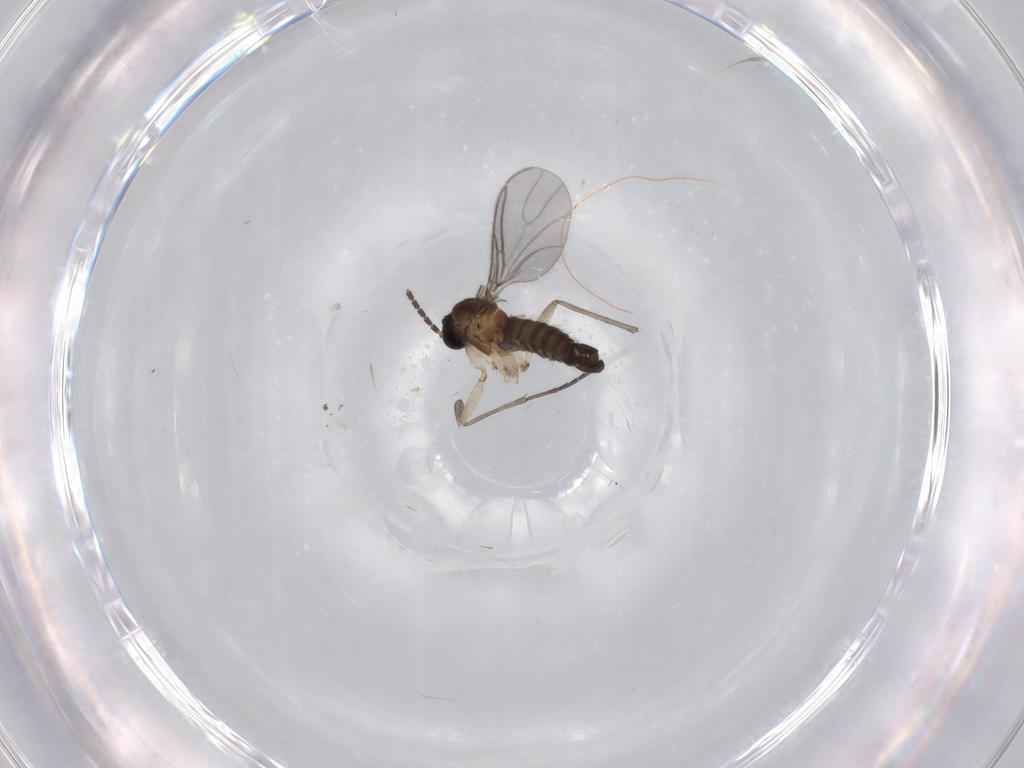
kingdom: Animalia
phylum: Arthropoda
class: Insecta
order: Diptera
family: Sciaridae
